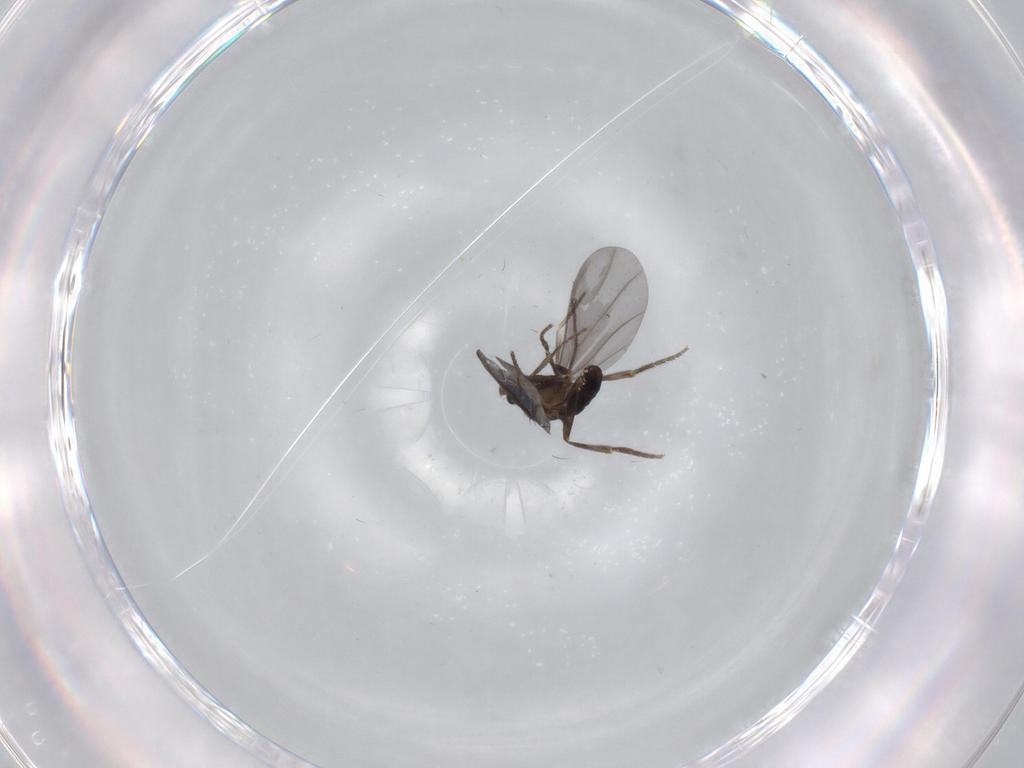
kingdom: Animalia
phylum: Arthropoda
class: Insecta
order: Diptera
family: Phoridae
